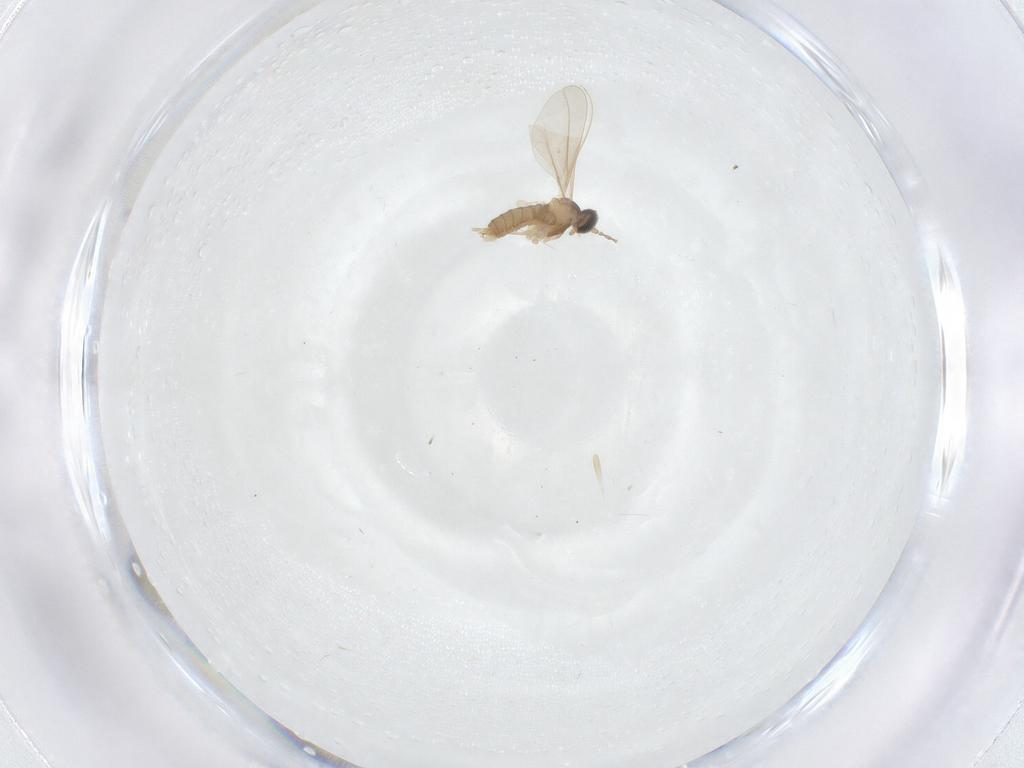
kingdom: Animalia
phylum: Arthropoda
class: Insecta
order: Diptera
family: Cecidomyiidae
